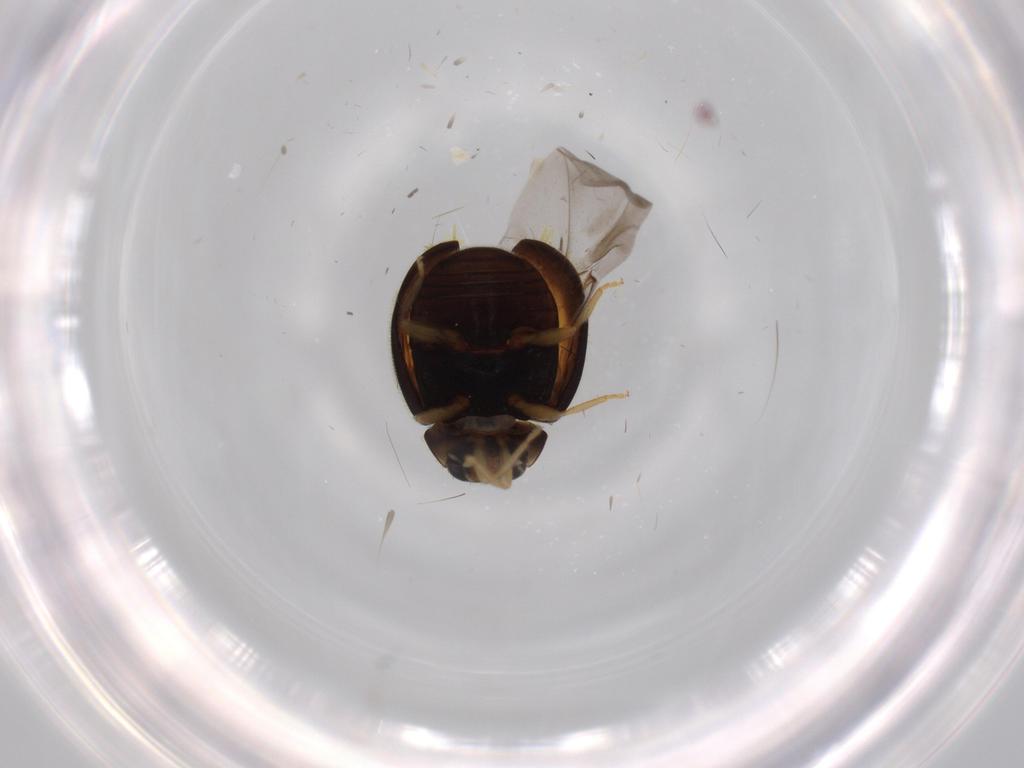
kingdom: Animalia
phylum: Arthropoda
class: Insecta
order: Coleoptera
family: Coccinellidae
